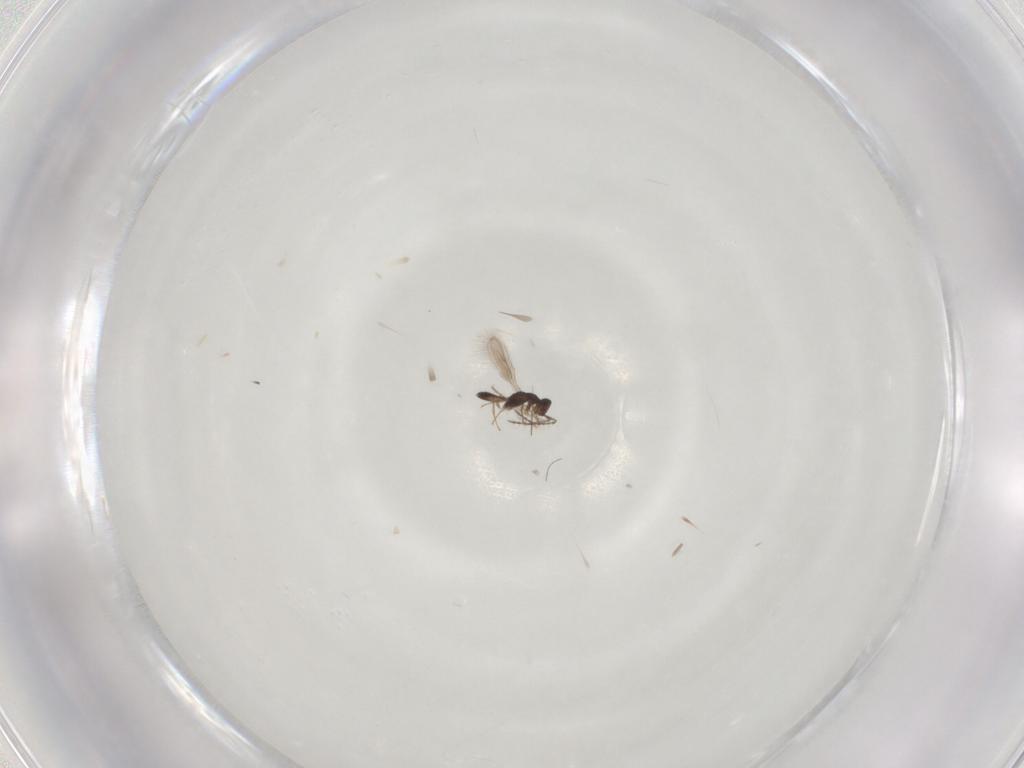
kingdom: Animalia
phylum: Arthropoda
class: Insecta
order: Diptera
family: Chironomidae
